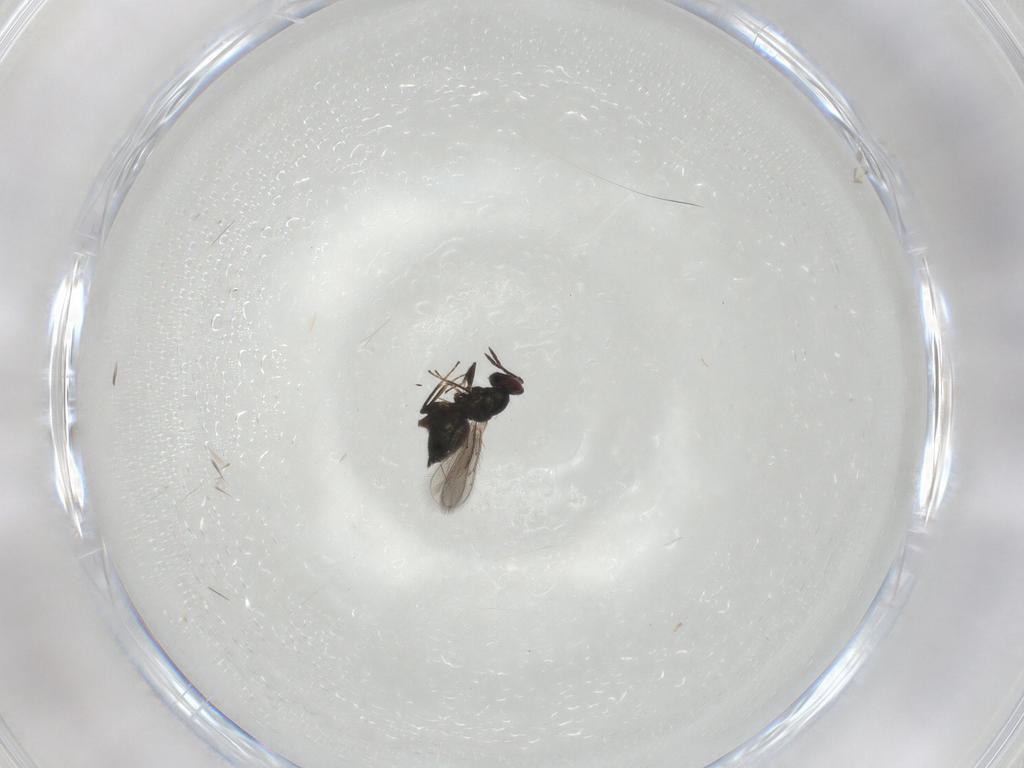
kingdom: Animalia
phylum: Arthropoda
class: Insecta
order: Hymenoptera
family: Eulophidae
